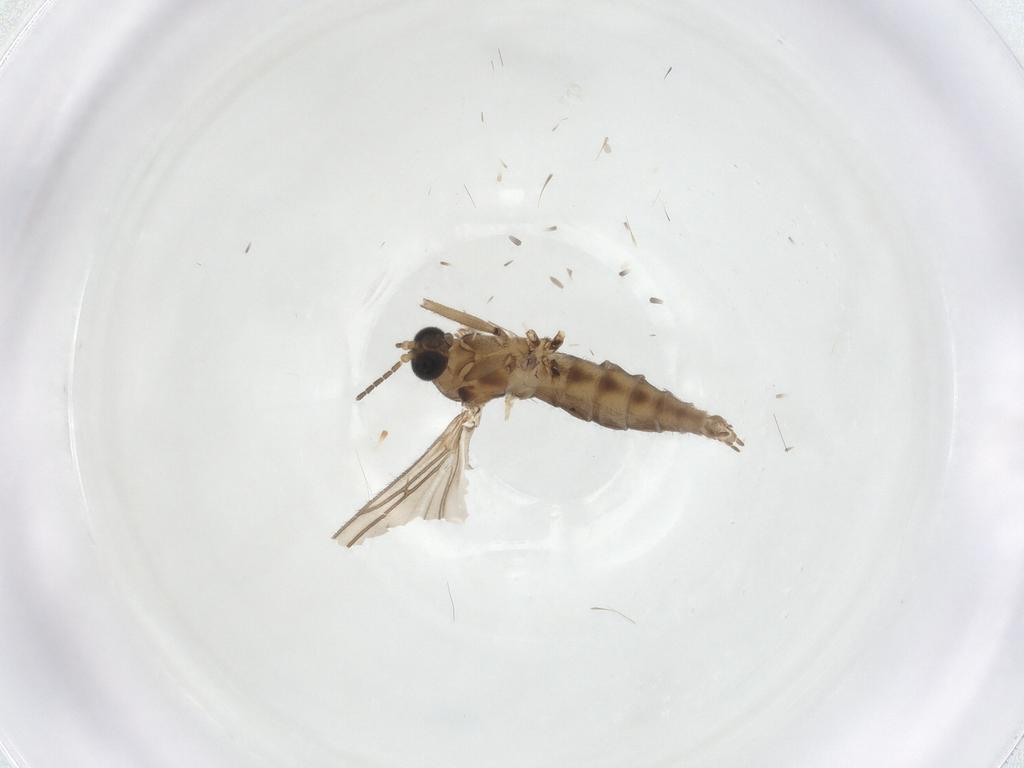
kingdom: Animalia
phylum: Arthropoda
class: Insecta
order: Diptera
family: Sciaridae
